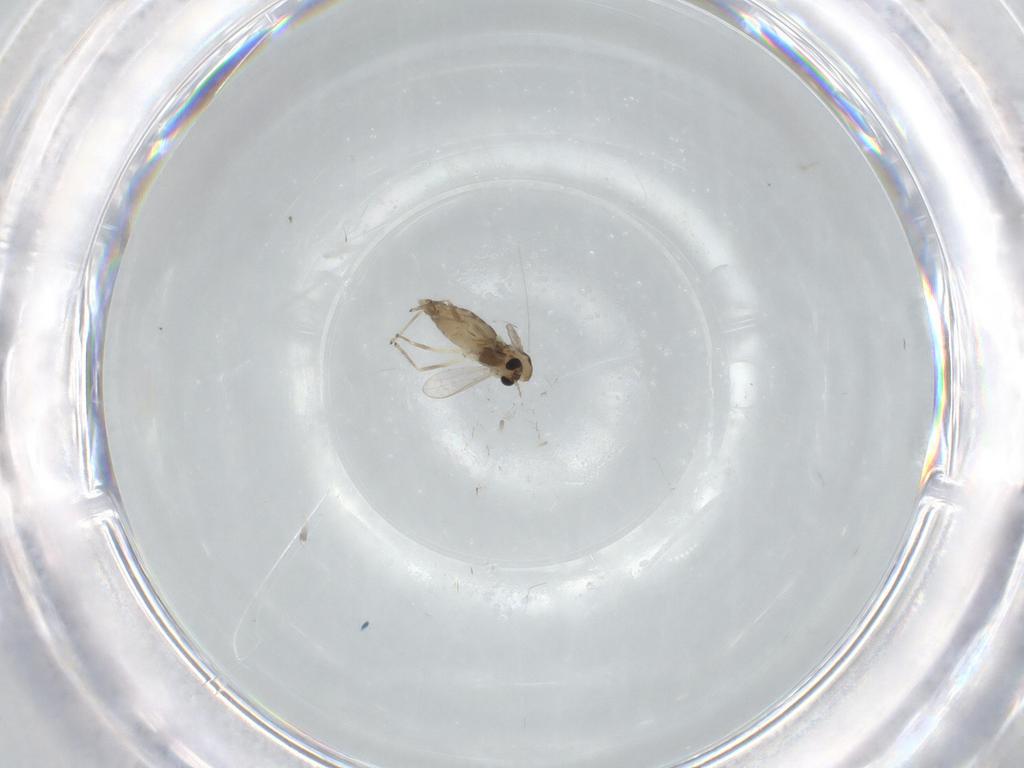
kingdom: Animalia
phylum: Arthropoda
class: Insecta
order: Diptera
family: Chironomidae
